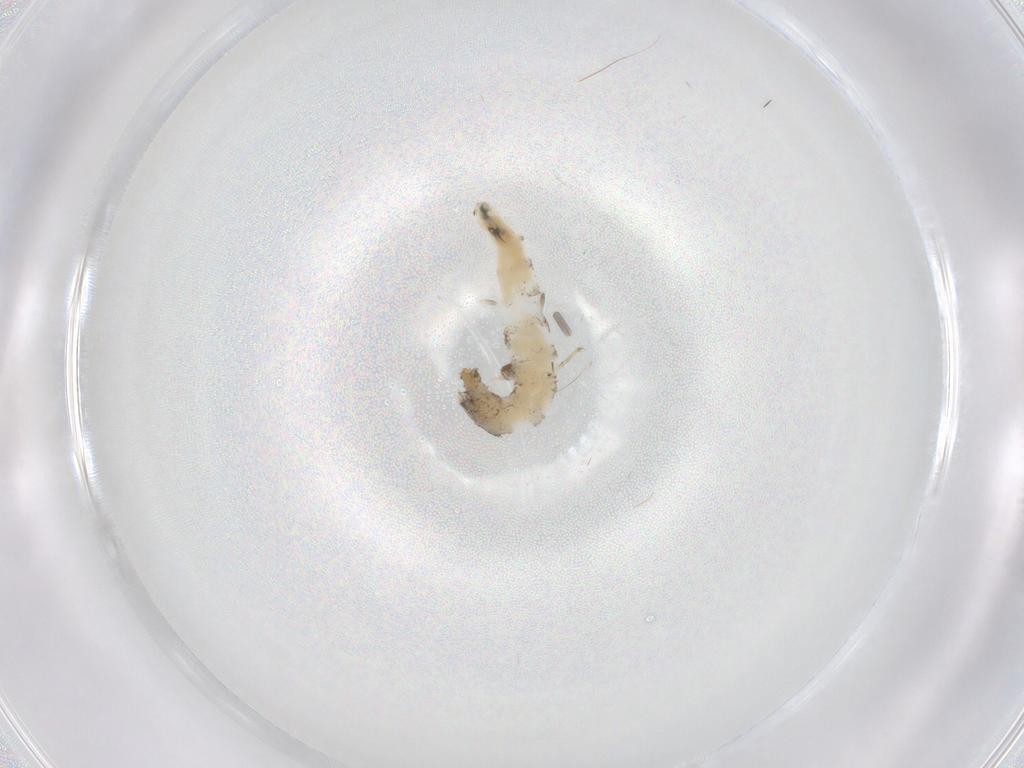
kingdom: Animalia
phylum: Arthropoda
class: Insecta
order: Diptera
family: Drosophilidae
